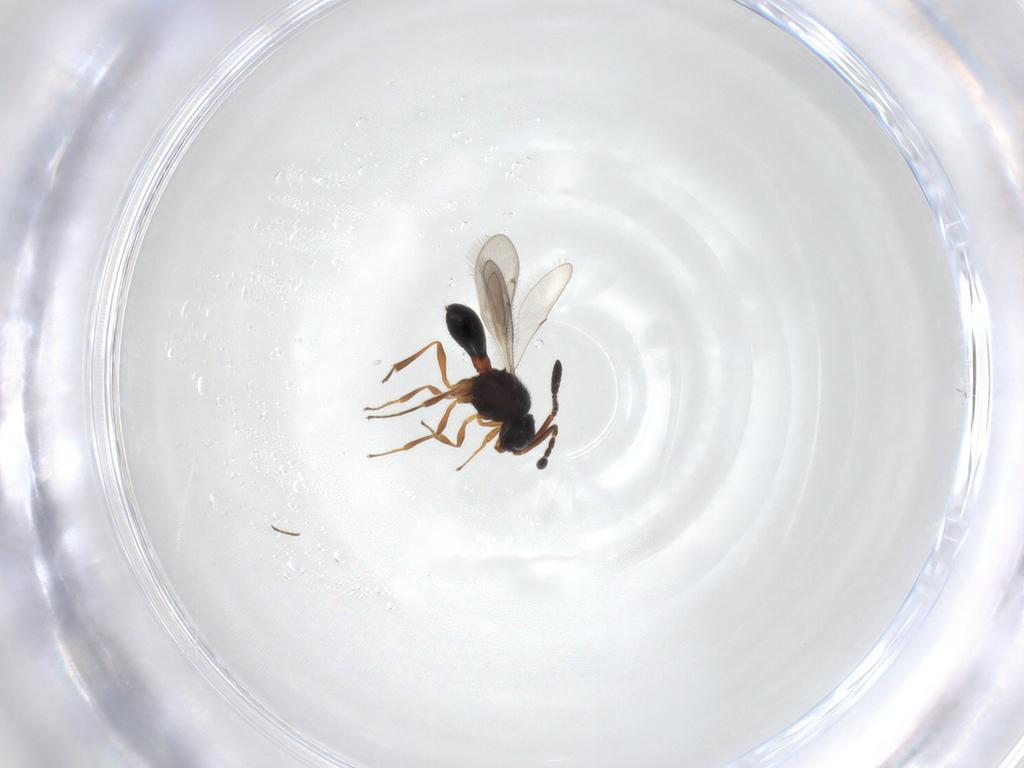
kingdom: Animalia
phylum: Arthropoda
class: Insecta
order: Hymenoptera
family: Scelionidae
